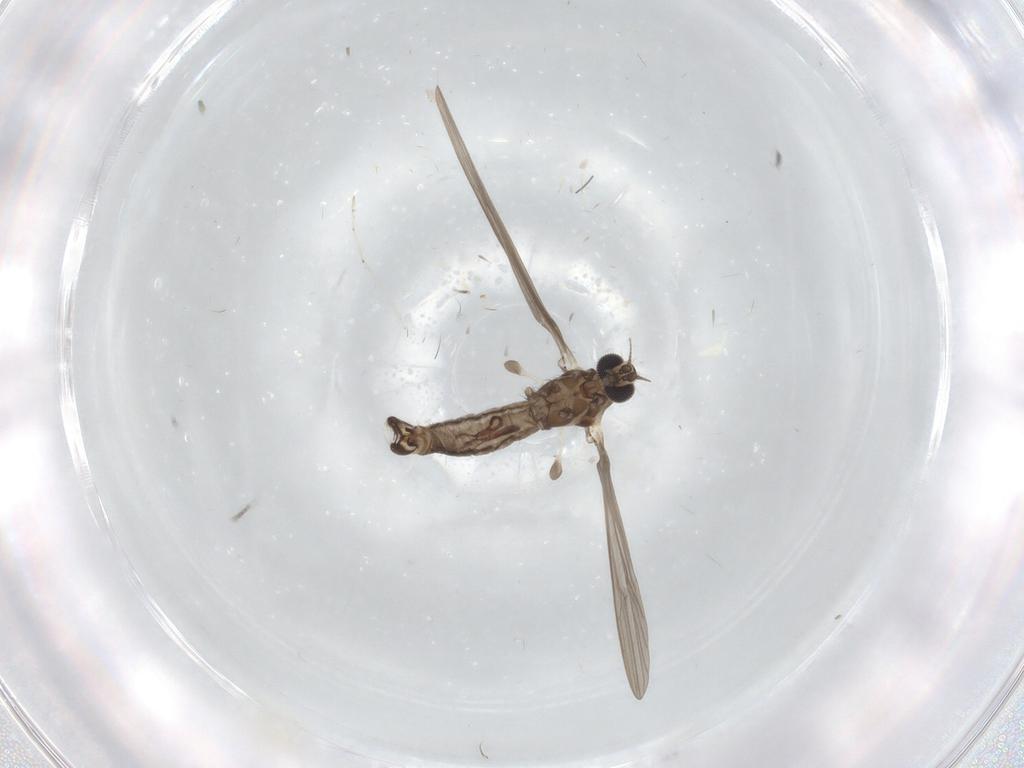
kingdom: Animalia
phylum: Arthropoda
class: Insecta
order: Diptera
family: Limoniidae
